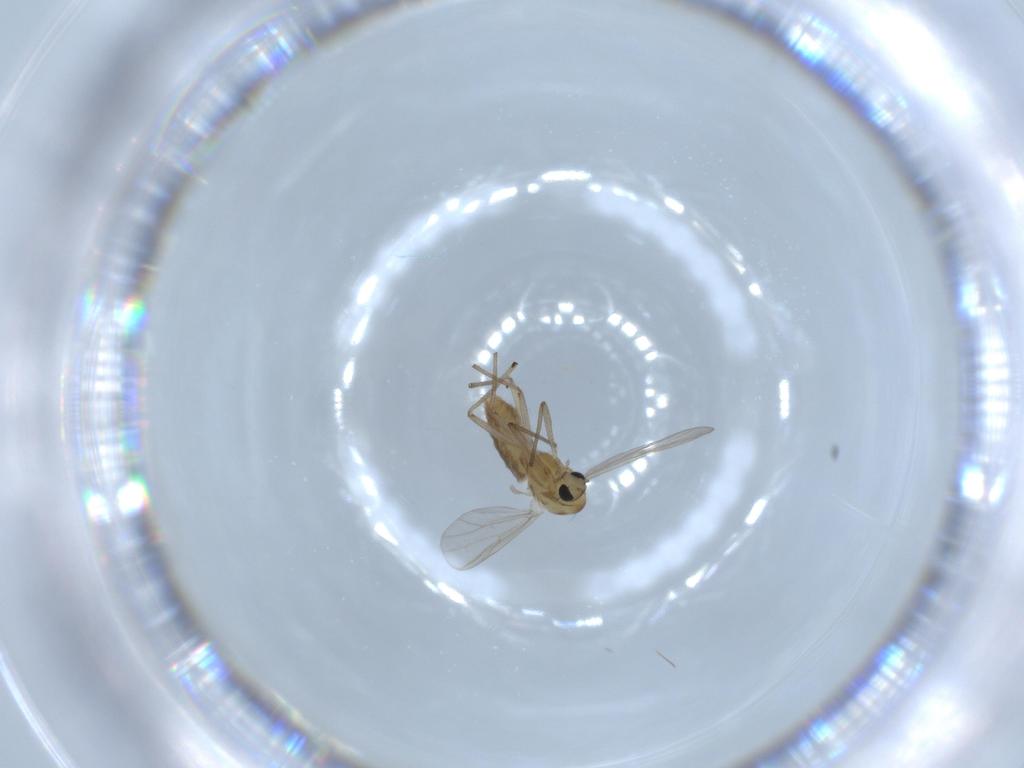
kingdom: Animalia
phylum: Arthropoda
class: Insecta
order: Diptera
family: Chironomidae
